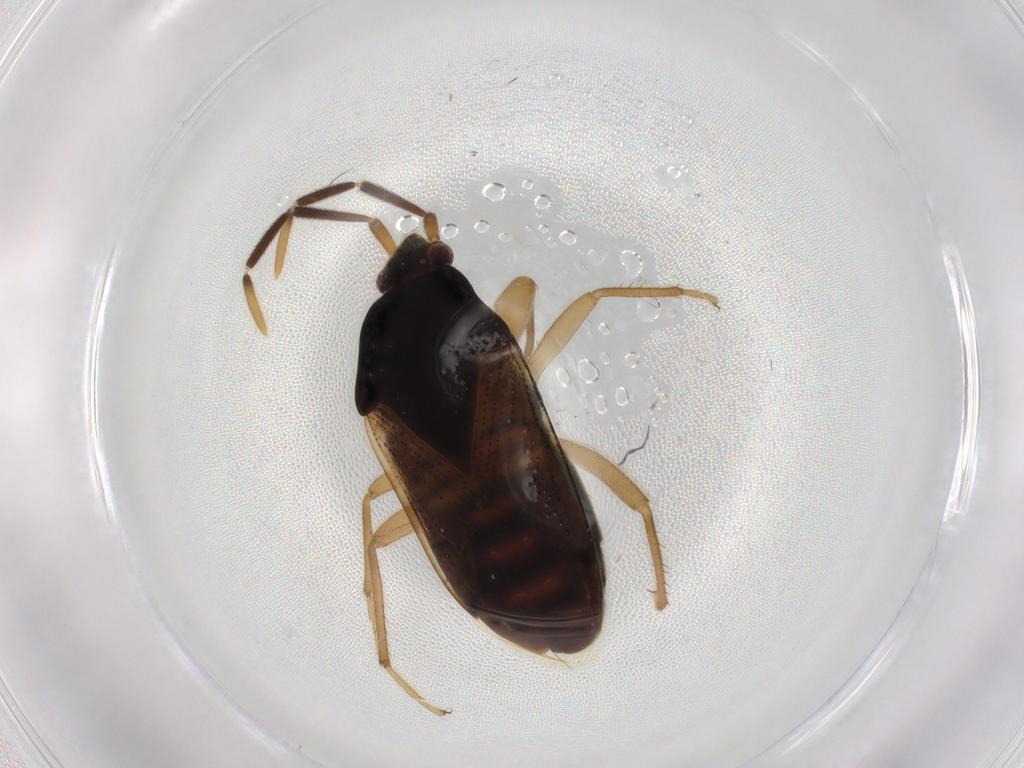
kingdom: Animalia
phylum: Arthropoda
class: Insecta
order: Hemiptera
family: Rhyparochromidae
